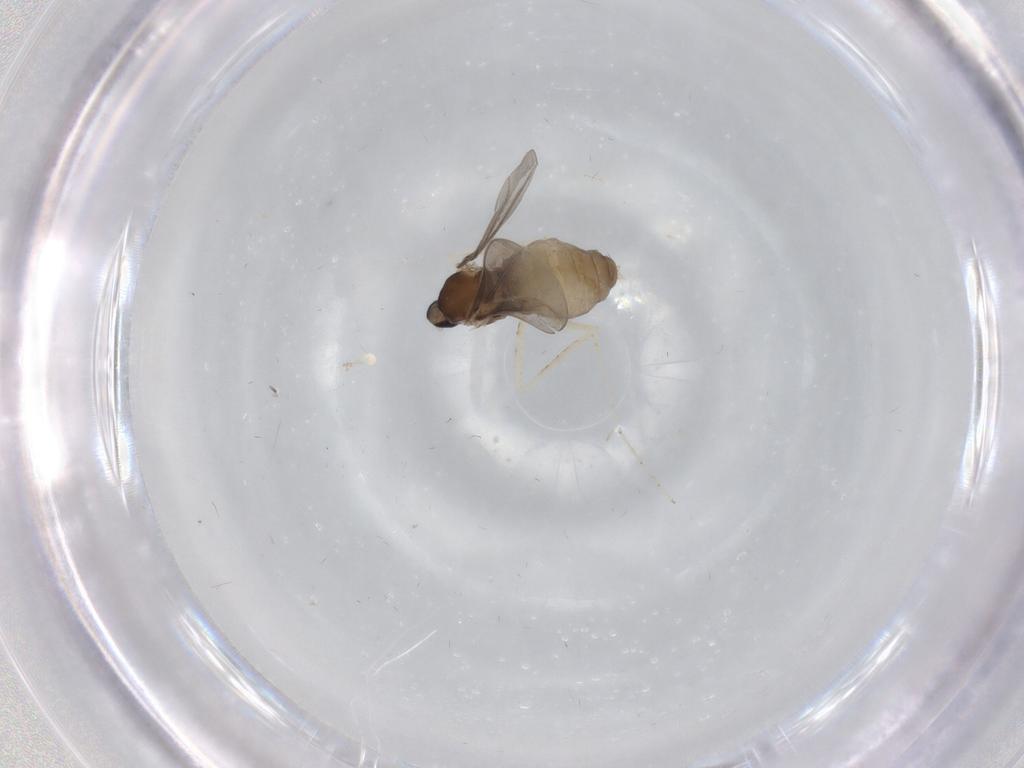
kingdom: Animalia
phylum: Arthropoda
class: Insecta
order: Diptera
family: Cecidomyiidae
